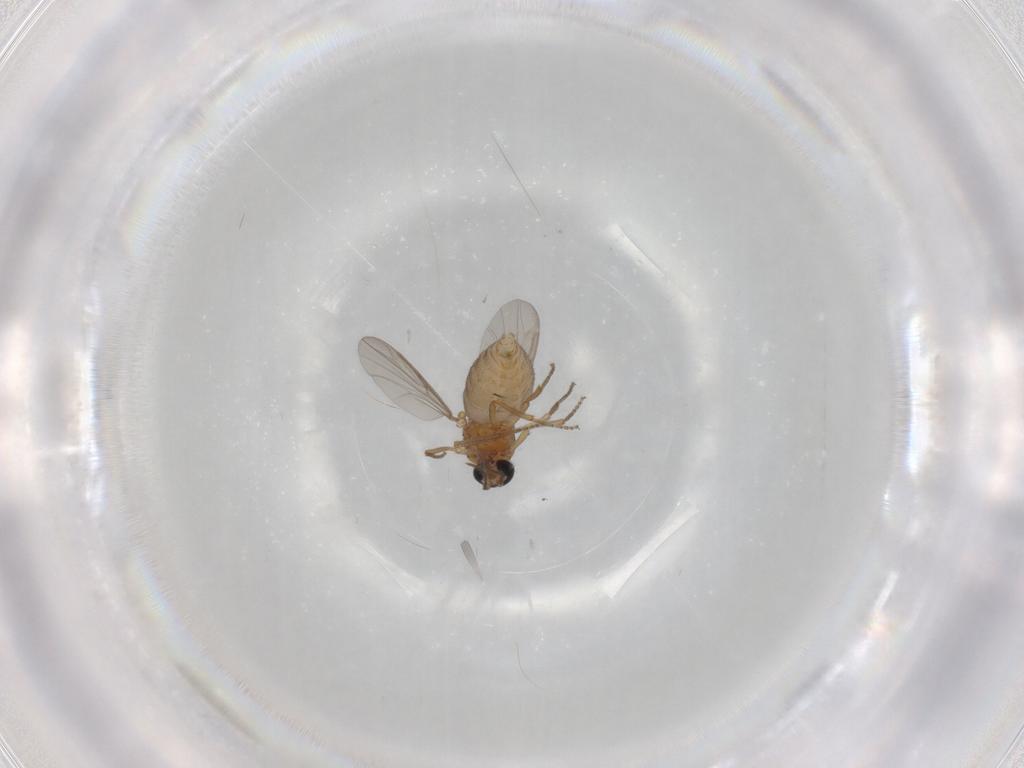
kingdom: Animalia
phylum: Arthropoda
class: Insecta
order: Diptera
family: Ceratopogonidae
